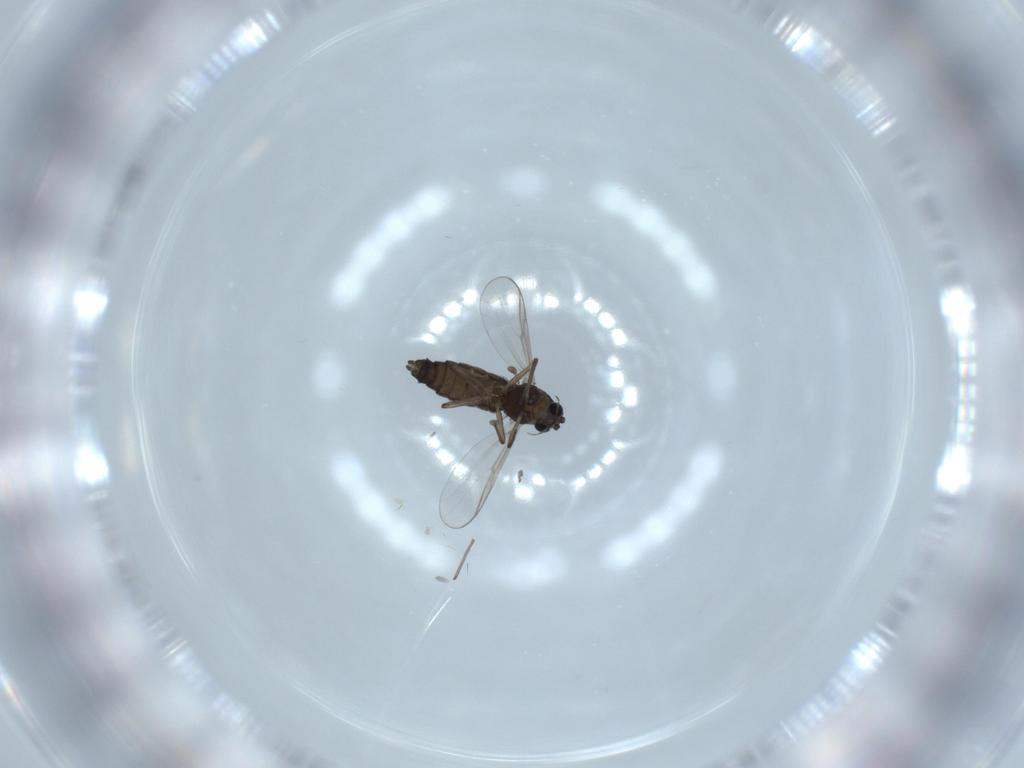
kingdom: Animalia
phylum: Arthropoda
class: Insecta
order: Diptera
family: Chironomidae
